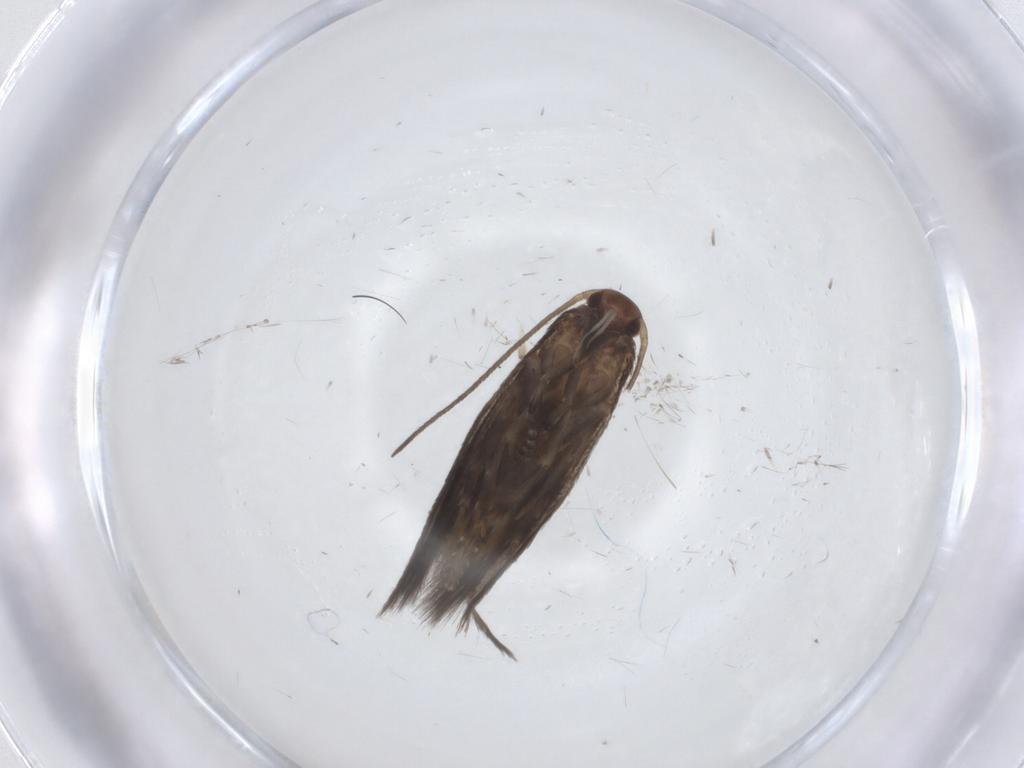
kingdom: Animalia
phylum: Arthropoda
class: Insecta
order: Lepidoptera
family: Elachistidae
